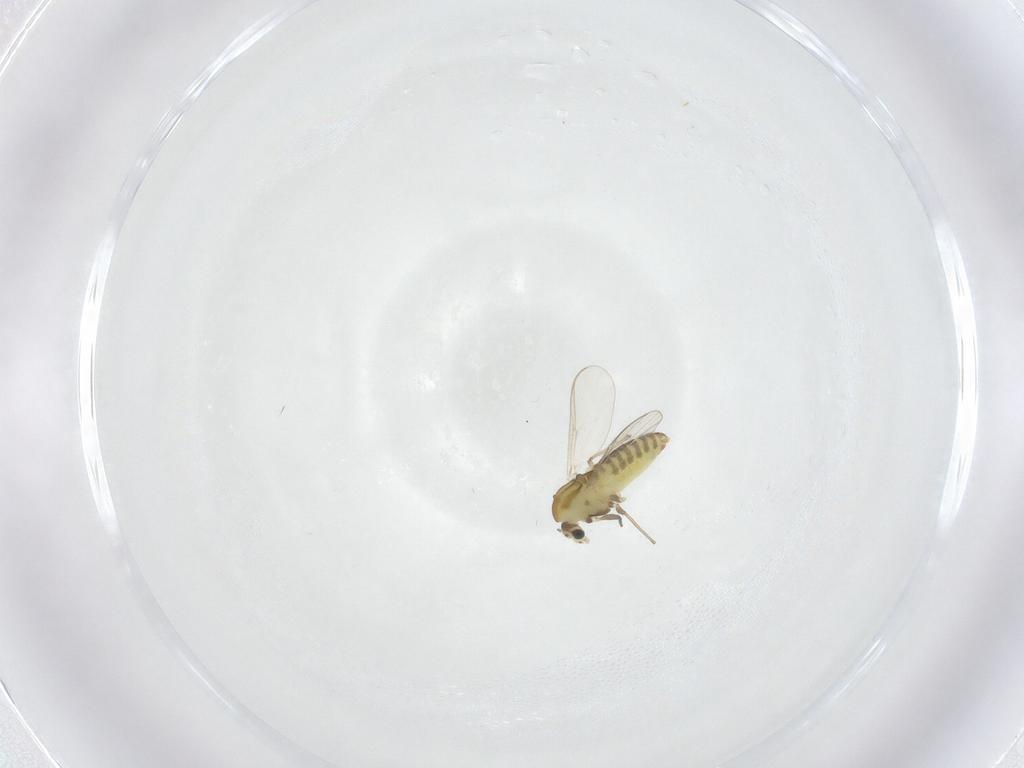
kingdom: Animalia
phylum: Arthropoda
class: Insecta
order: Diptera
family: Chironomidae
